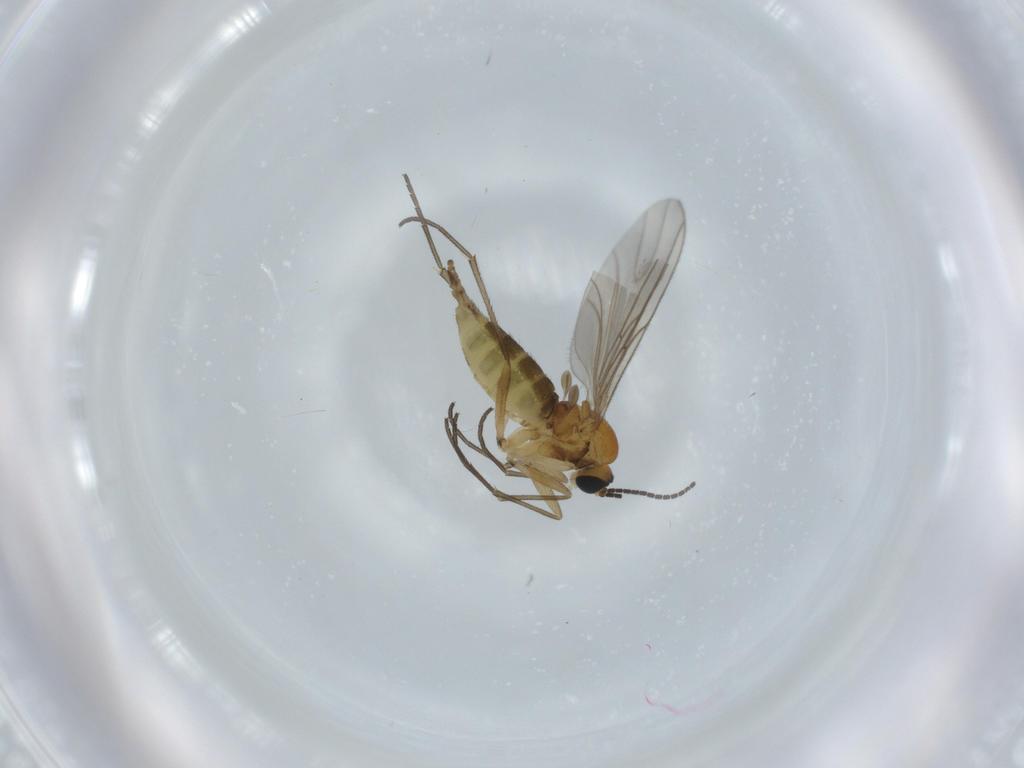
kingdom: Animalia
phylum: Arthropoda
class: Insecta
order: Diptera
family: Sciaridae
